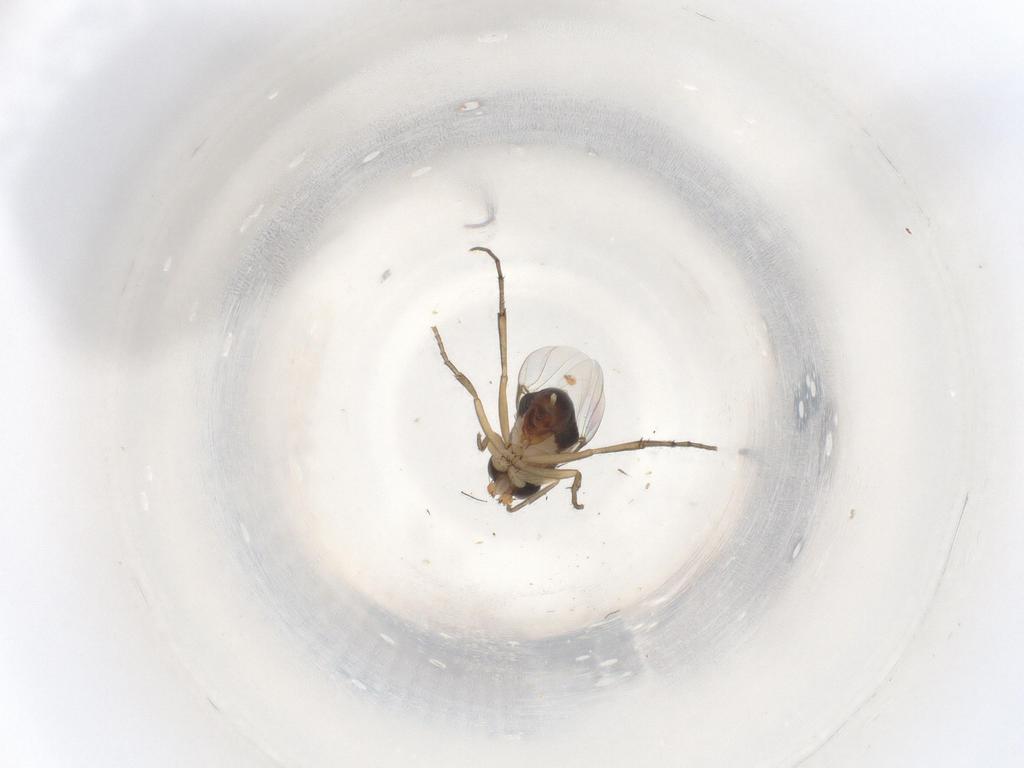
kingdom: Animalia
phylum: Arthropoda
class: Insecta
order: Diptera
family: Phoridae
